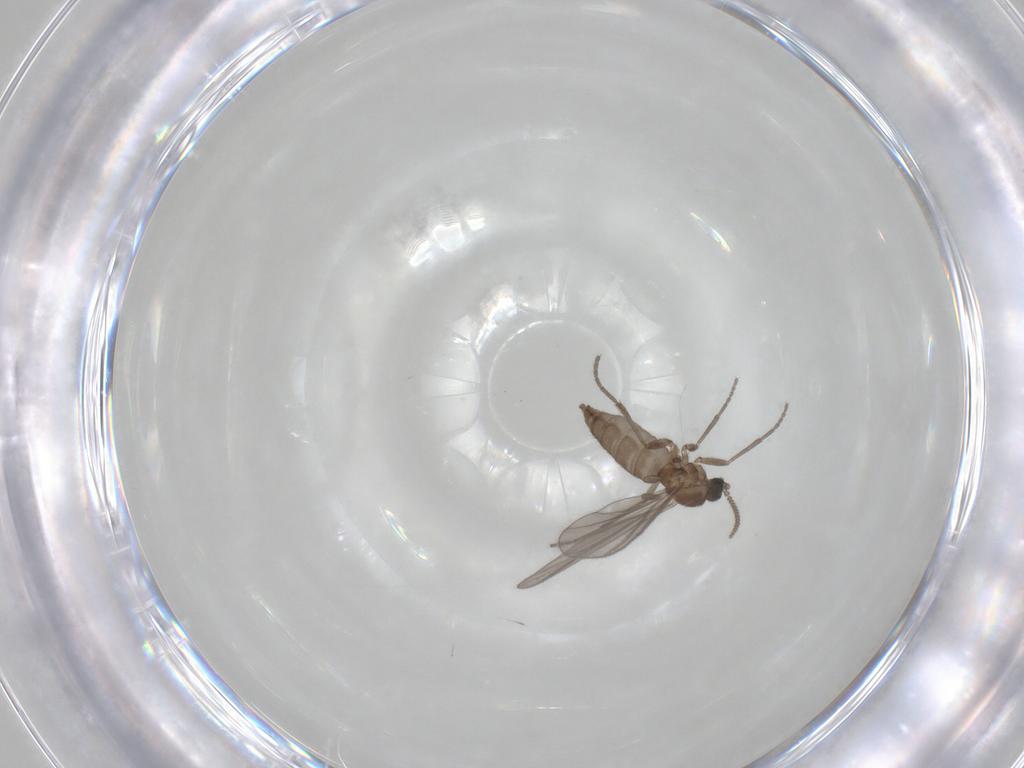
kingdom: Animalia
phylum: Arthropoda
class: Insecta
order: Diptera
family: Sciaridae
